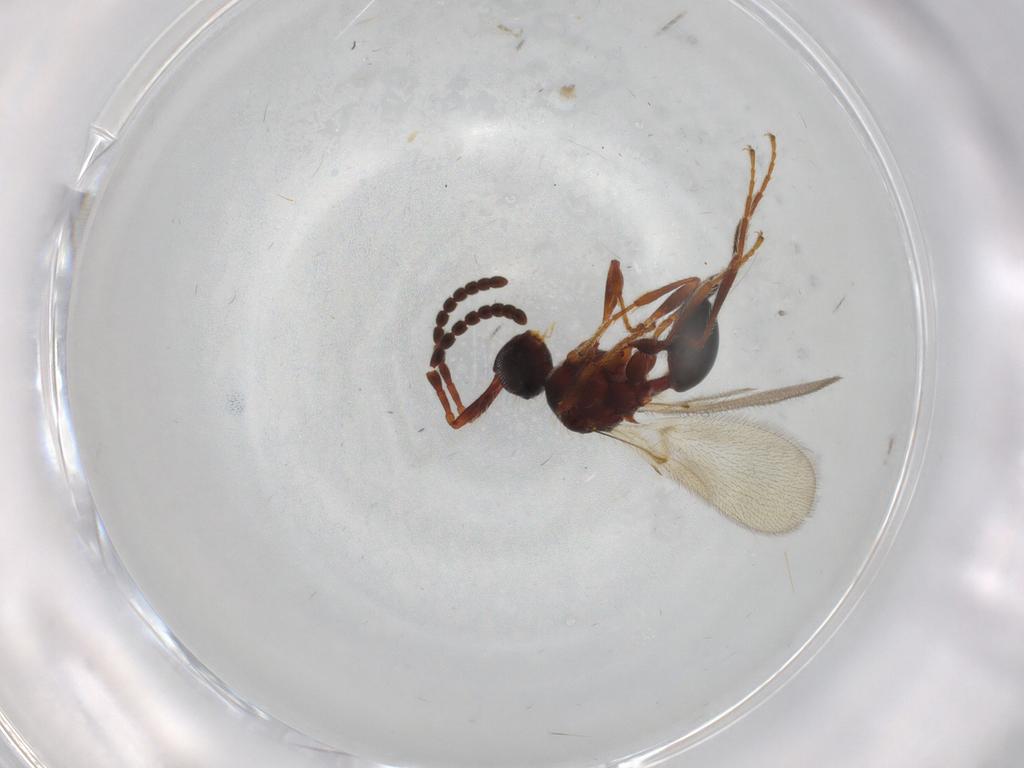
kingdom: Animalia
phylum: Arthropoda
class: Insecta
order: Hymenoptera
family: Diapriidae
